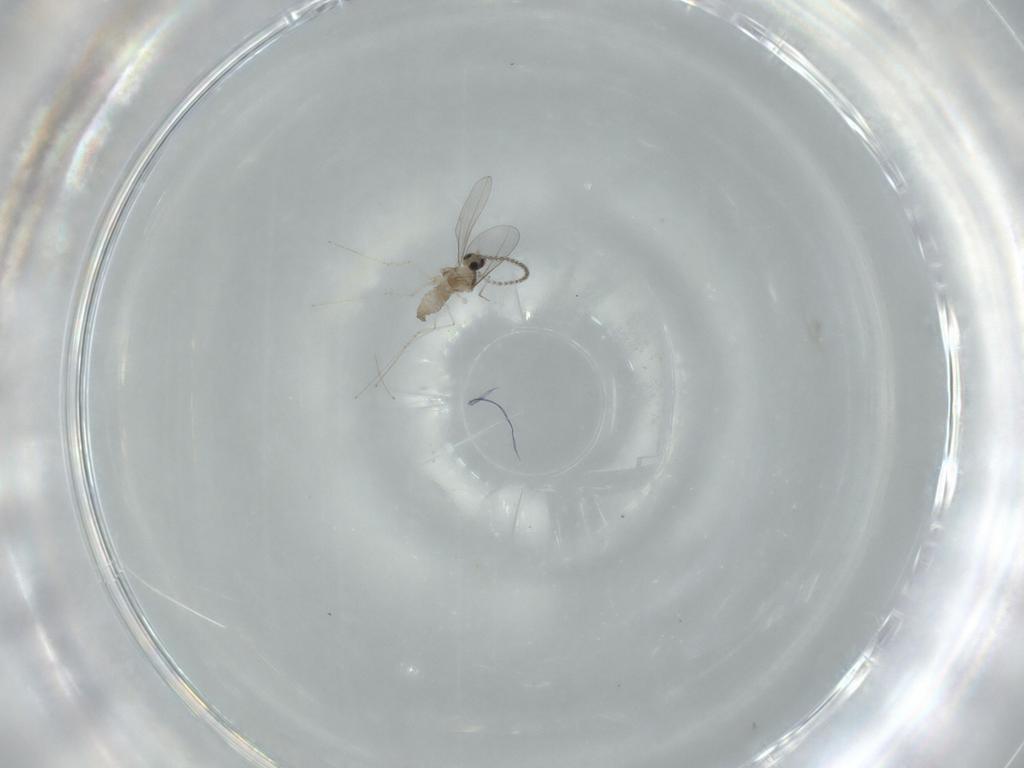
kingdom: Animalia
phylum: Arthropoda
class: Insecta
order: Diptera
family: Cecidomyiidae
